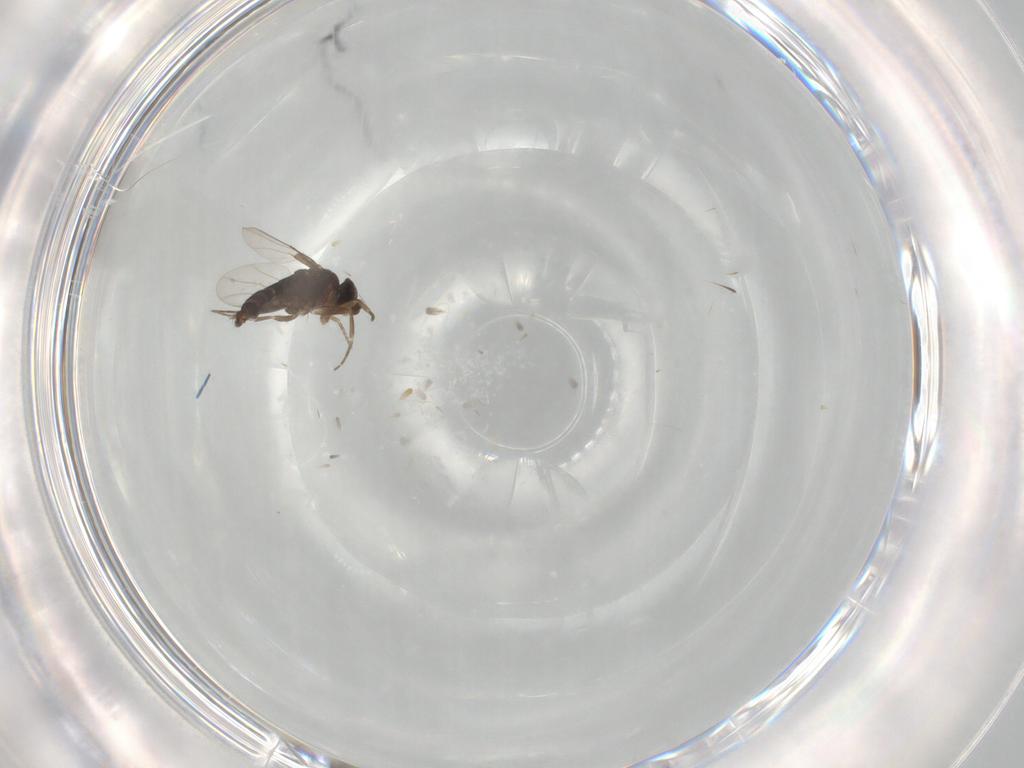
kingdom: Animalia
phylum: Arthropoda
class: Insecta
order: Diptera
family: Phoridae
